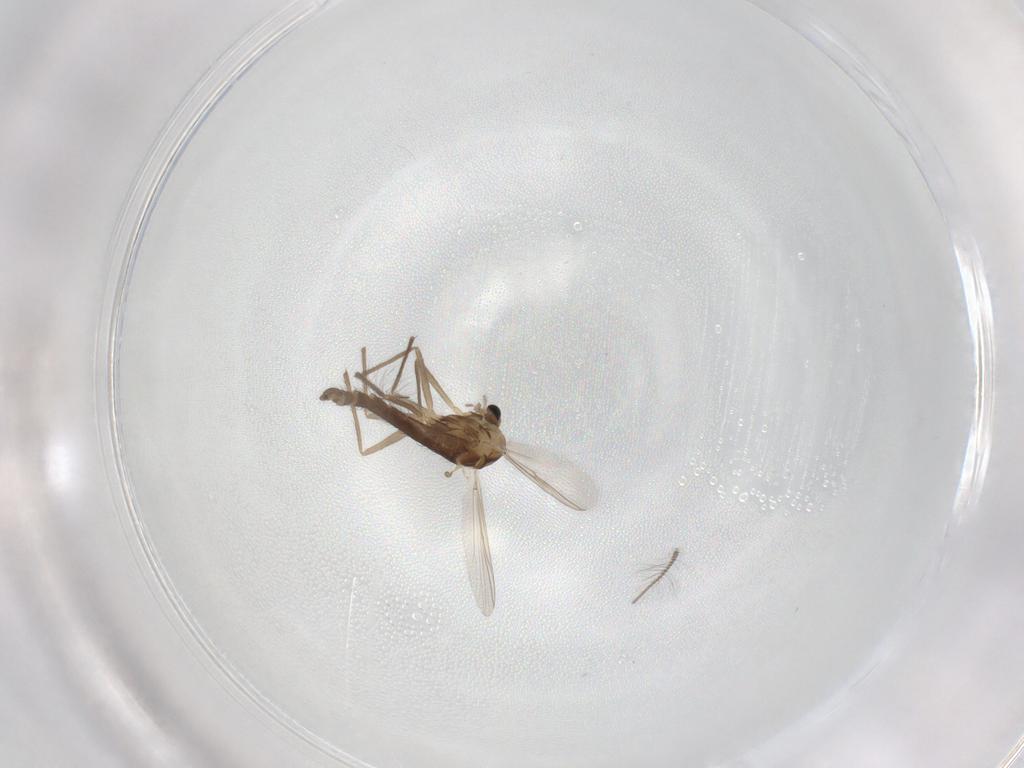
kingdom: Animalia
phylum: Arthropoda
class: Insecta
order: Diptera
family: Chironomidae
